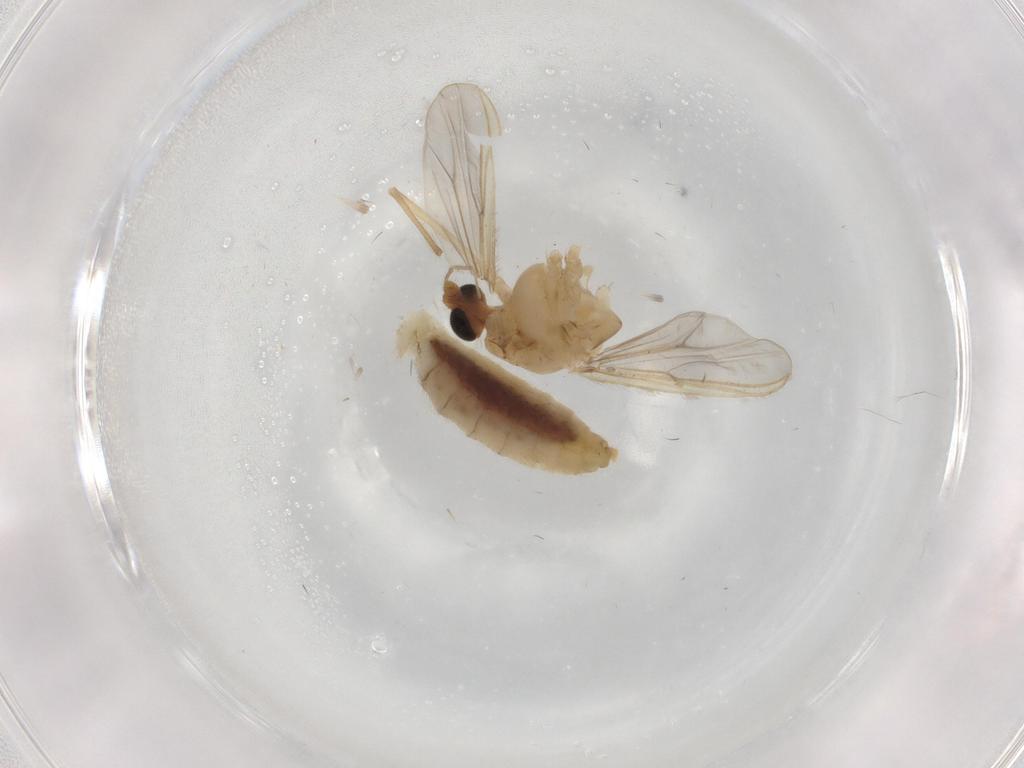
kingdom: Animalia
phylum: Arthropoda
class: Insecta
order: Diptera
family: Chironomidae
